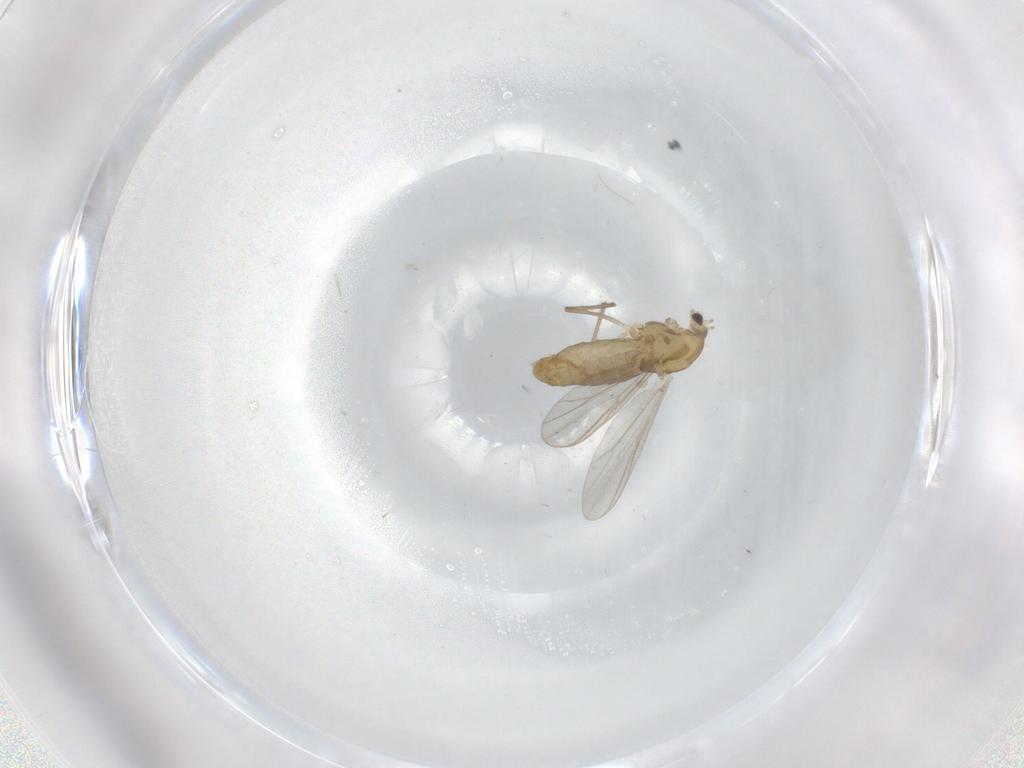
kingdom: Animalia
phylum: Arthropoda
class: Insecta
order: Diptera
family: Chironomidae
